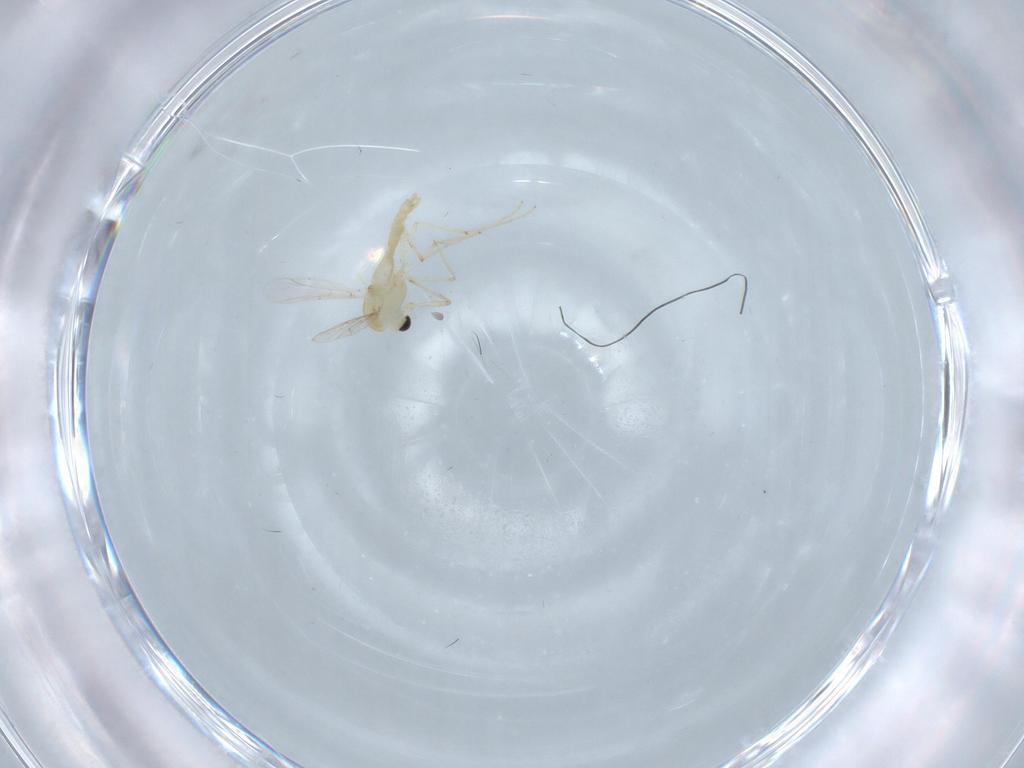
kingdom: Animalia
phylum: Arthropoda
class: Insecta
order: Diptera
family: Chironomidae
